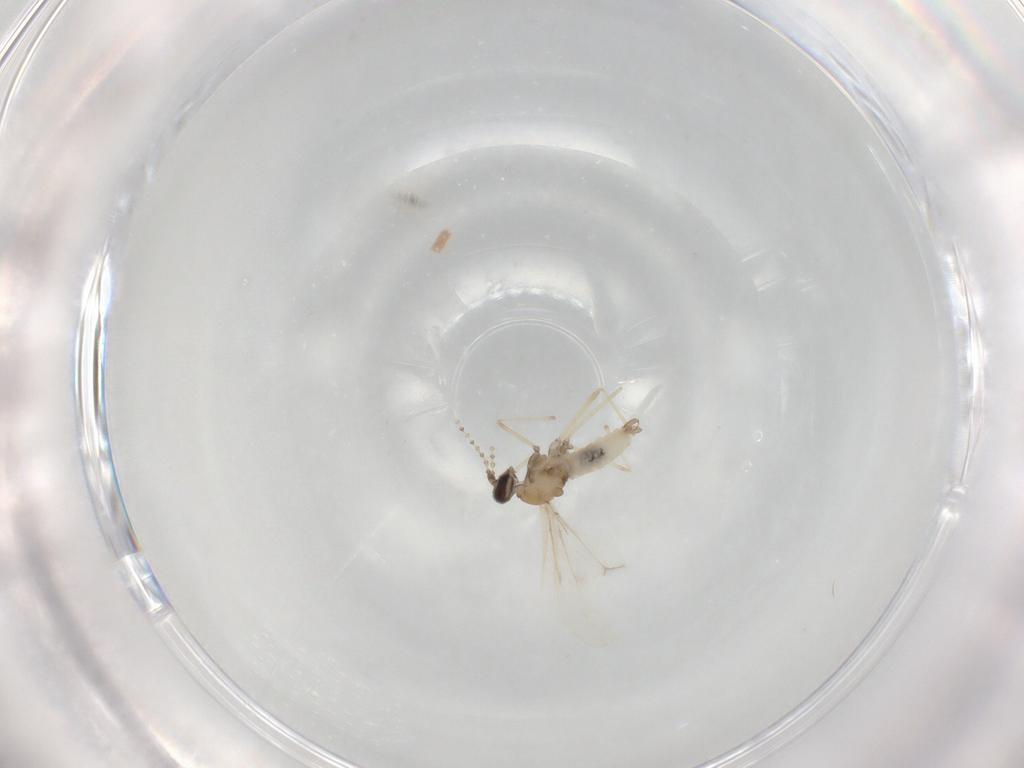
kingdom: Animalia
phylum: Arthropoda
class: Insecta
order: Diptera
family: Cecidomyiidae
